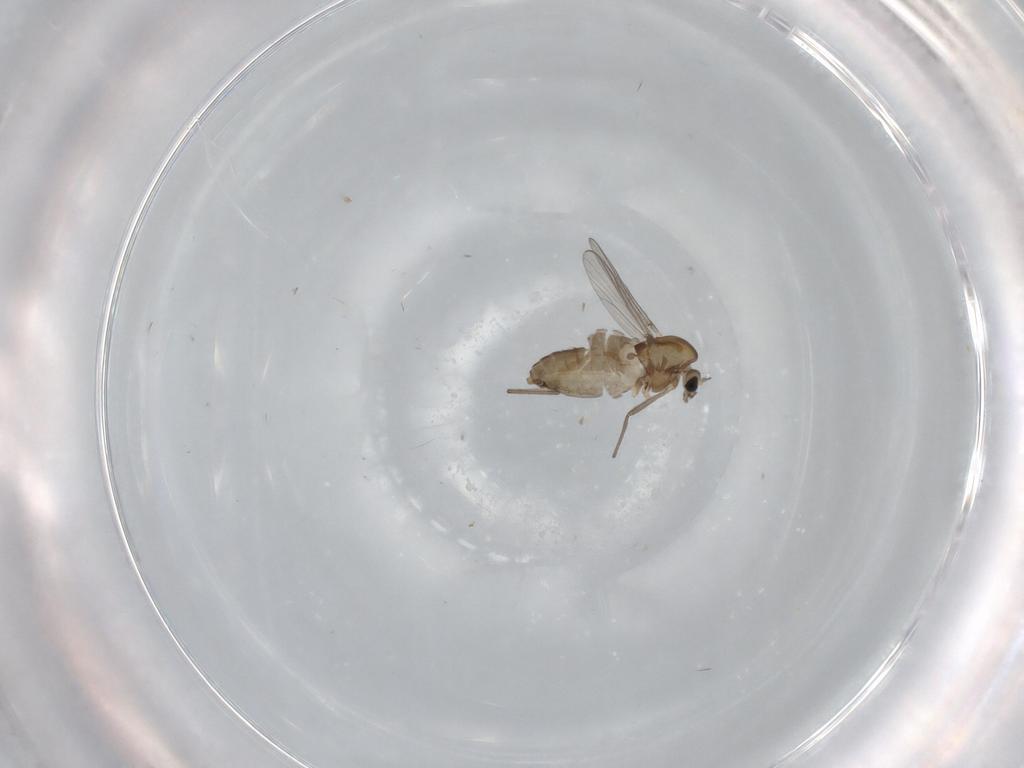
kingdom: Animalia
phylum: Arthropoda
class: Insecta
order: Diptera
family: Chironomidae
